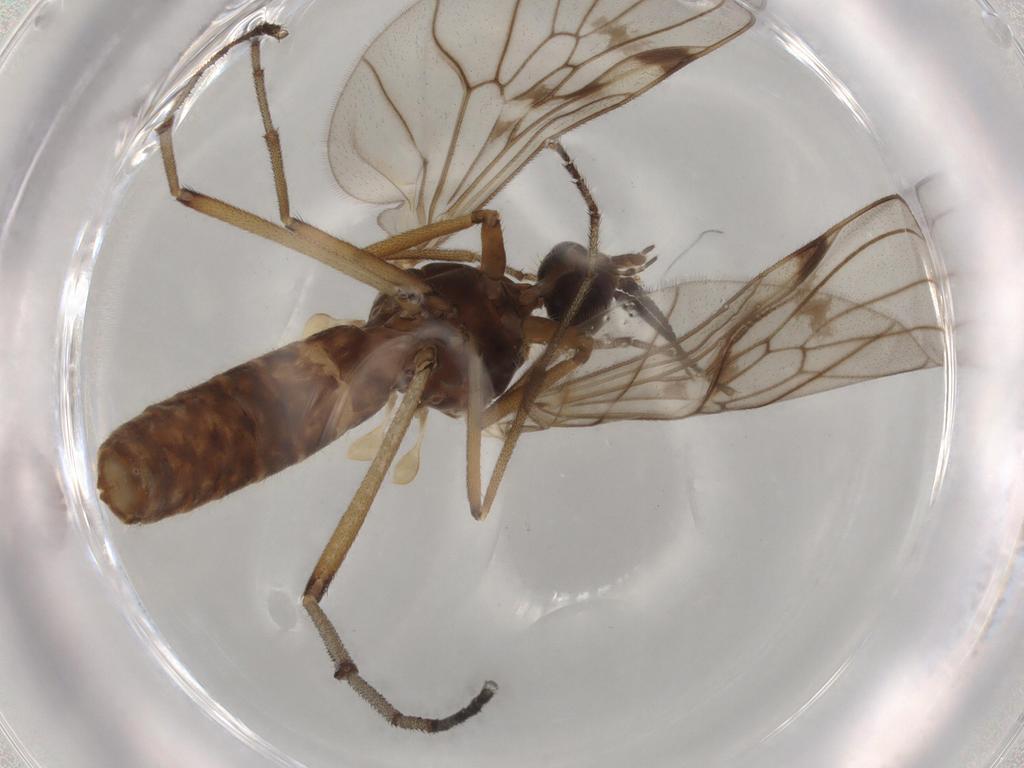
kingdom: Animalia
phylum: Arthropoda
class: Insecta
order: Diptera
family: Anisopodidae
